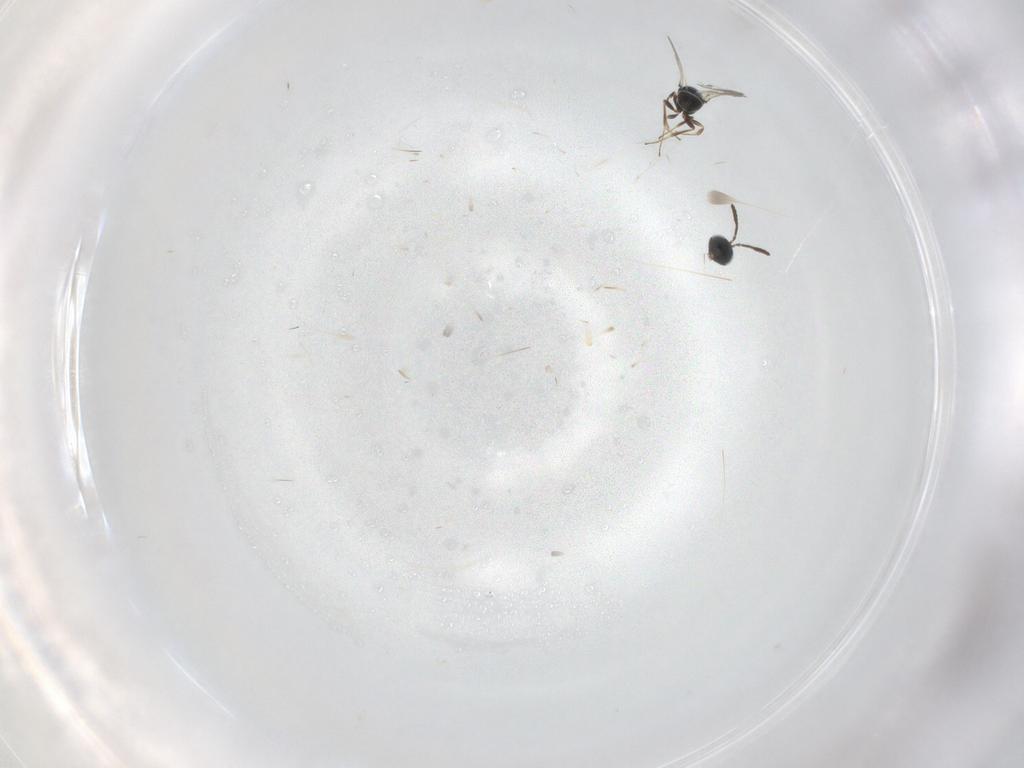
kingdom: Animalia
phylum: Arthropoda
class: Insecta
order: Hymenoptera
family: Scelionidae
